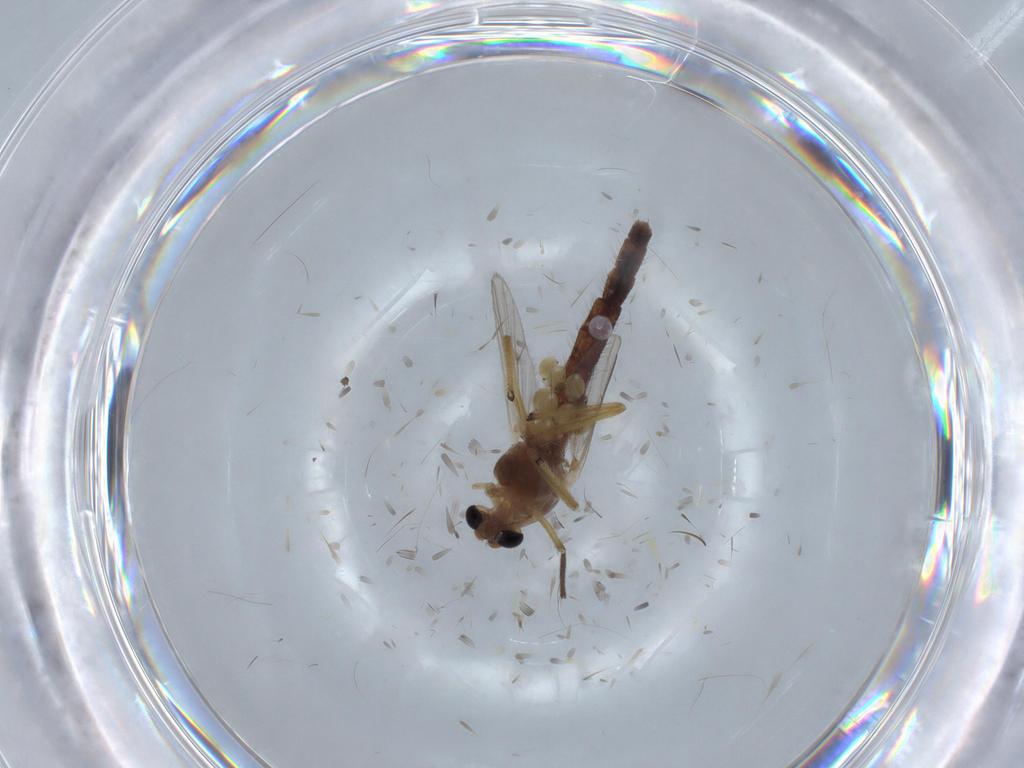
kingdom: Animalia
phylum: Arthropoda
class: Insecta
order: Diptera
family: Chironomidae
